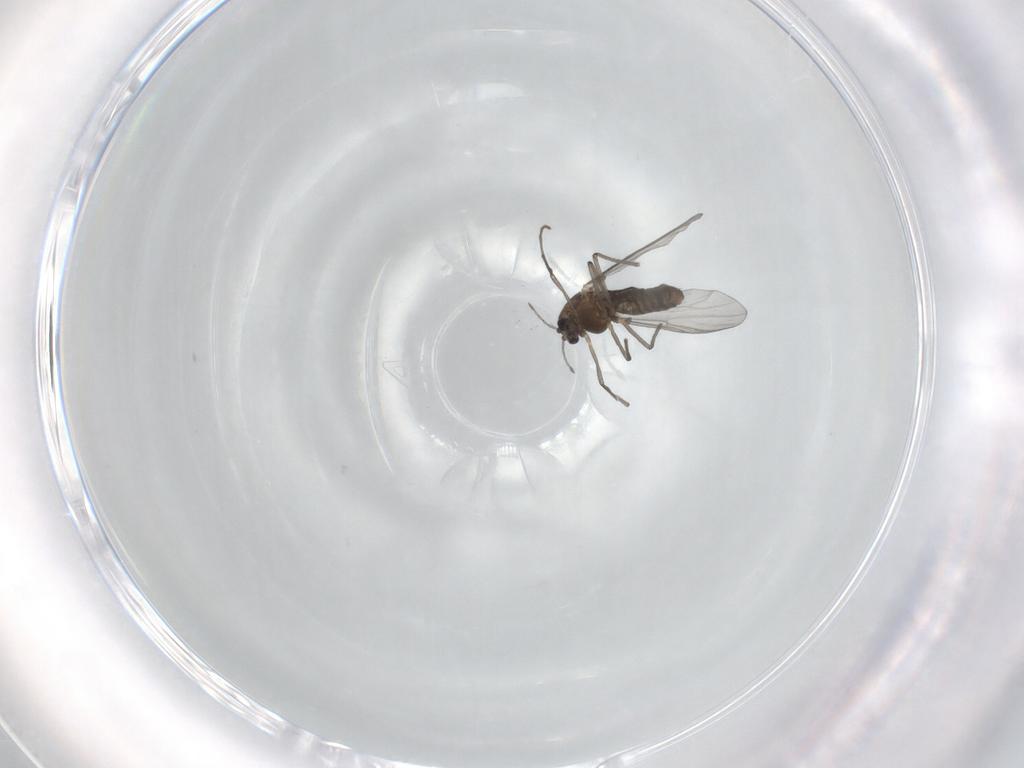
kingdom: Animalia
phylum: Arthropoda
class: Insecta
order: Diptera
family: Chironomidae
